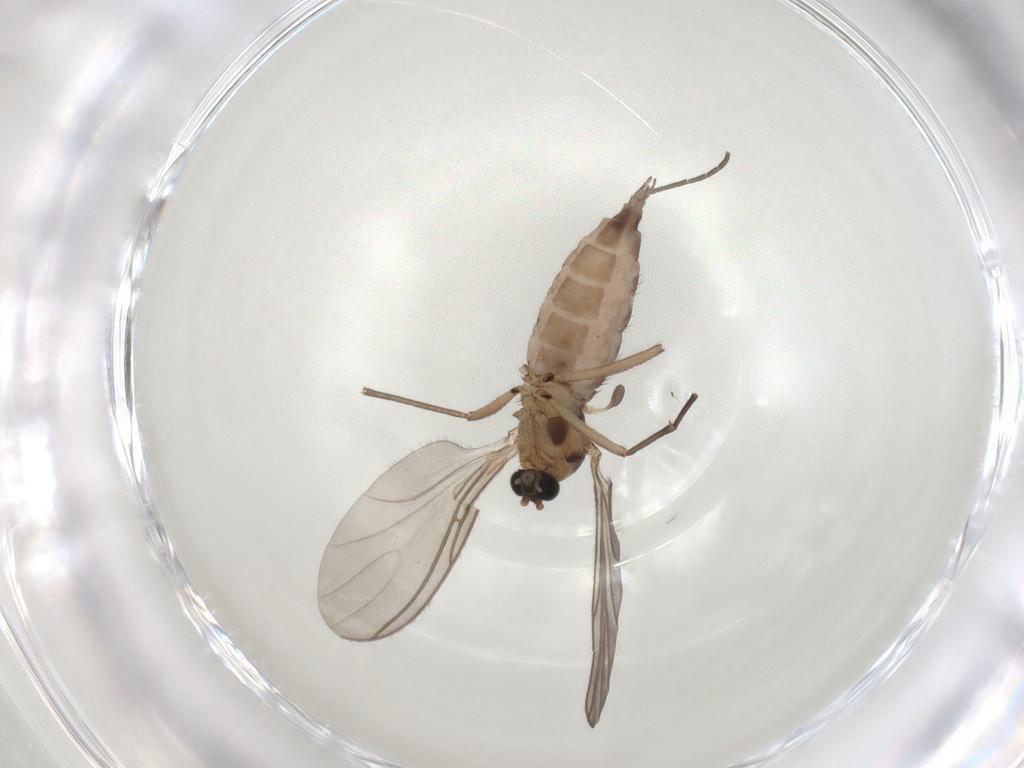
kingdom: Animalia
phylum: Arthropoda
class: Insecta
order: Diptera
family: Sciaridae
